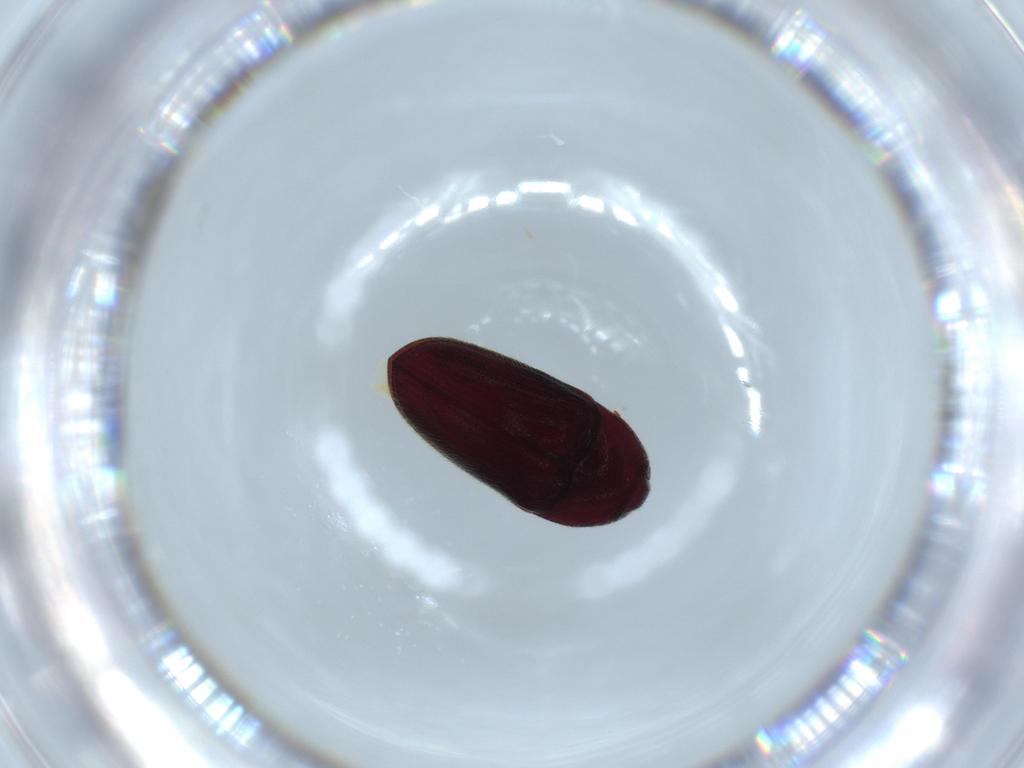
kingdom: Animalia
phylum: Arthropoda
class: Insecta
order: Coleoptera
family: Throscidae
